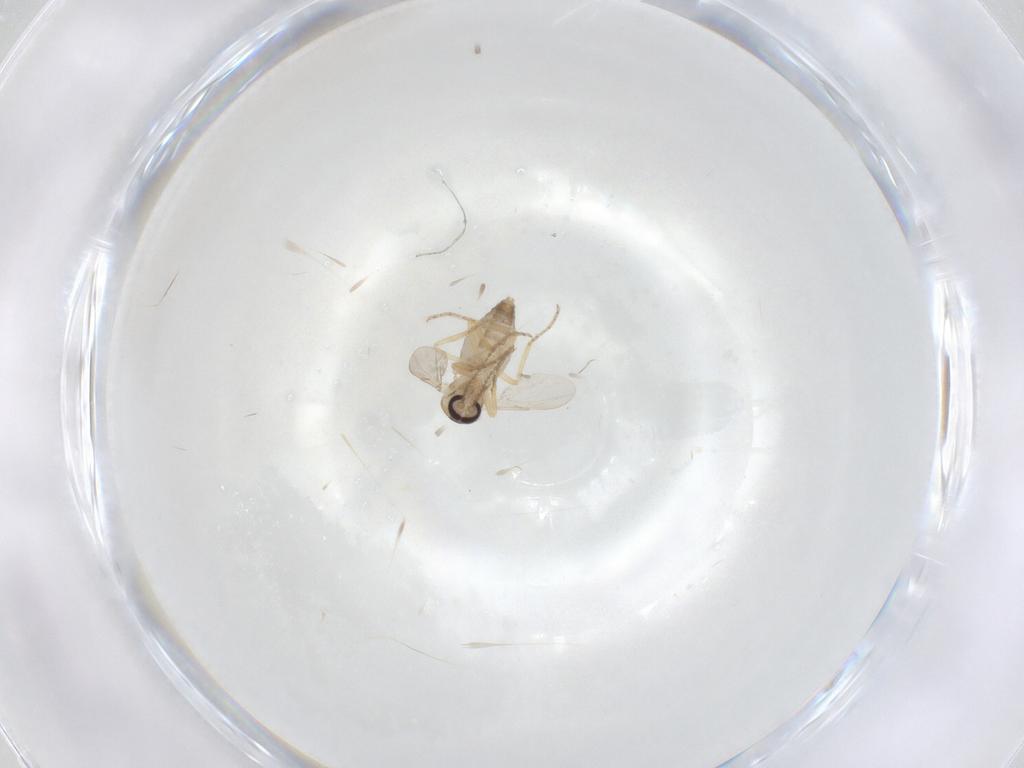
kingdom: Animalia
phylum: Arthropoda
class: Insecta
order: Diptera
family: Ceratopogonidae
